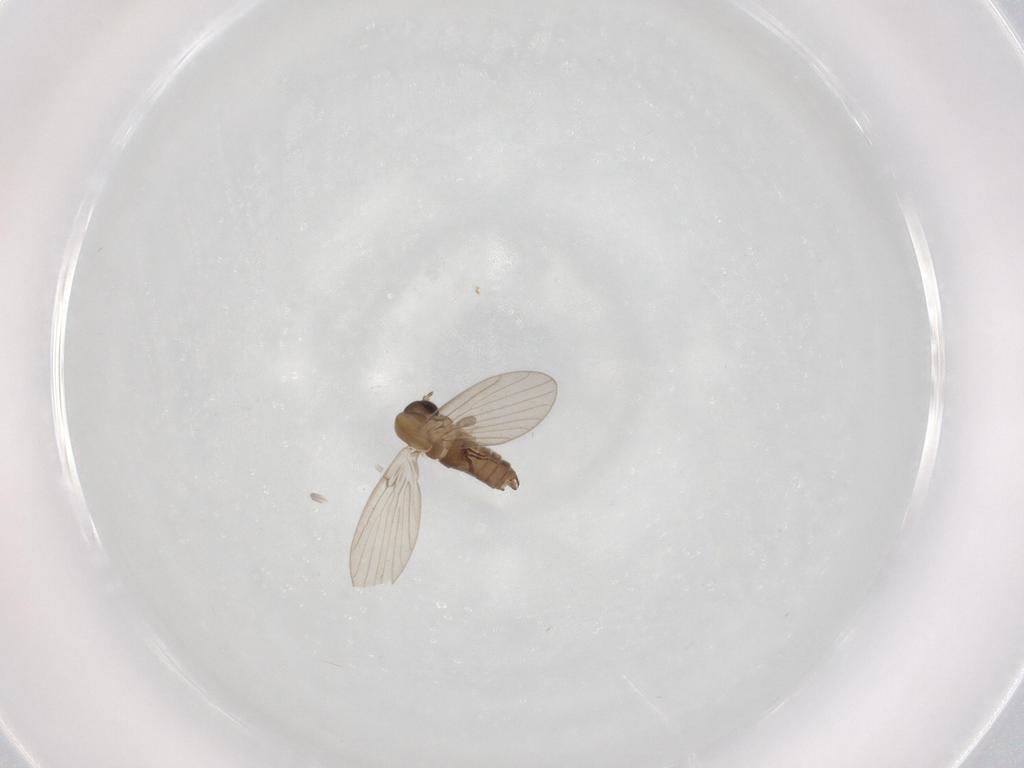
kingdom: Animalia
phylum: Arthropoda
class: Insecta
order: Diptera
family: Psychodidae
